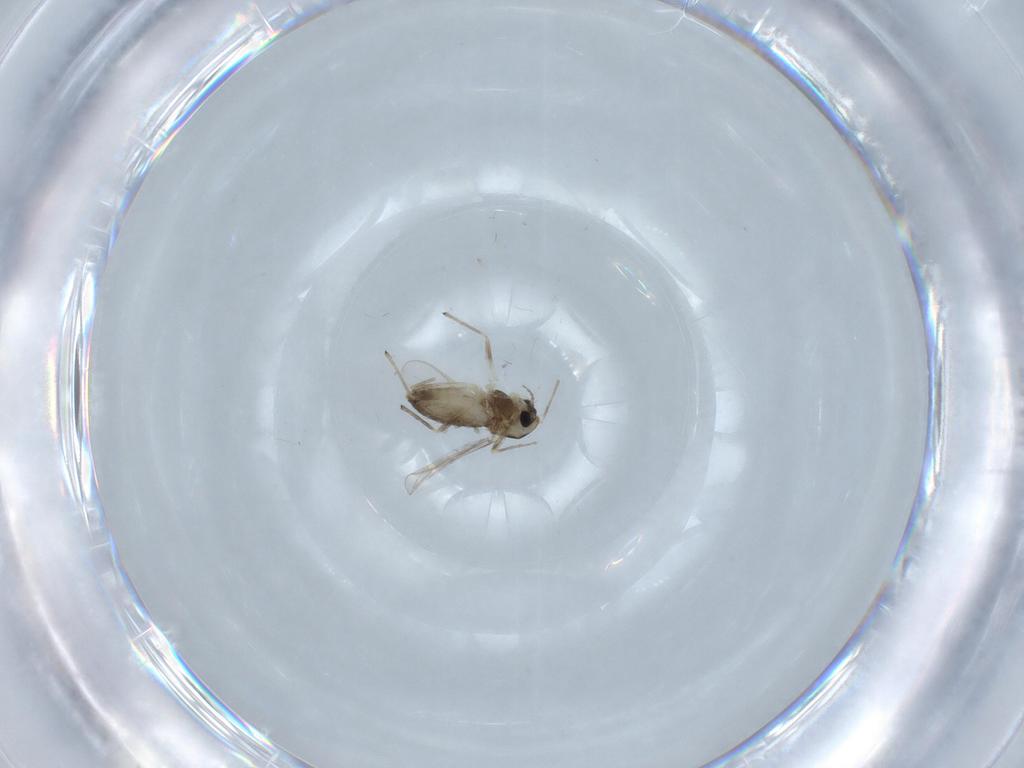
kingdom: Animalia
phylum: Arthropoda
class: Insecta
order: Diptera
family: Chironomidae
